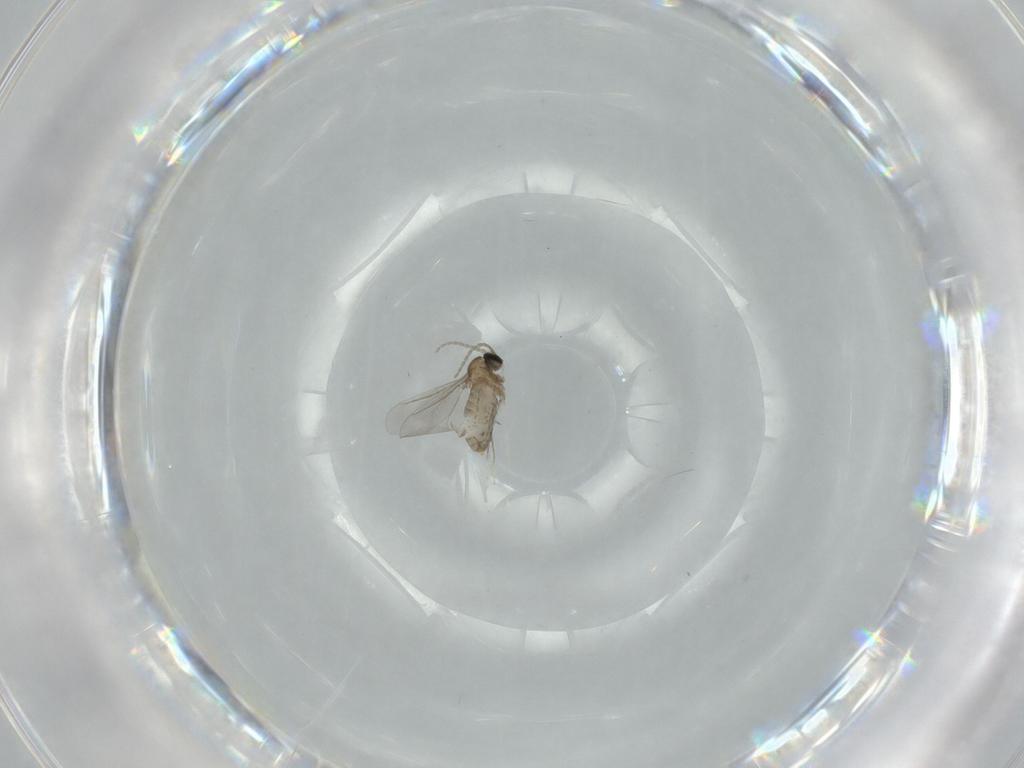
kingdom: Animalia
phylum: Arthropoda
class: Insecta
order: Diptera
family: Cecidomyiidae
